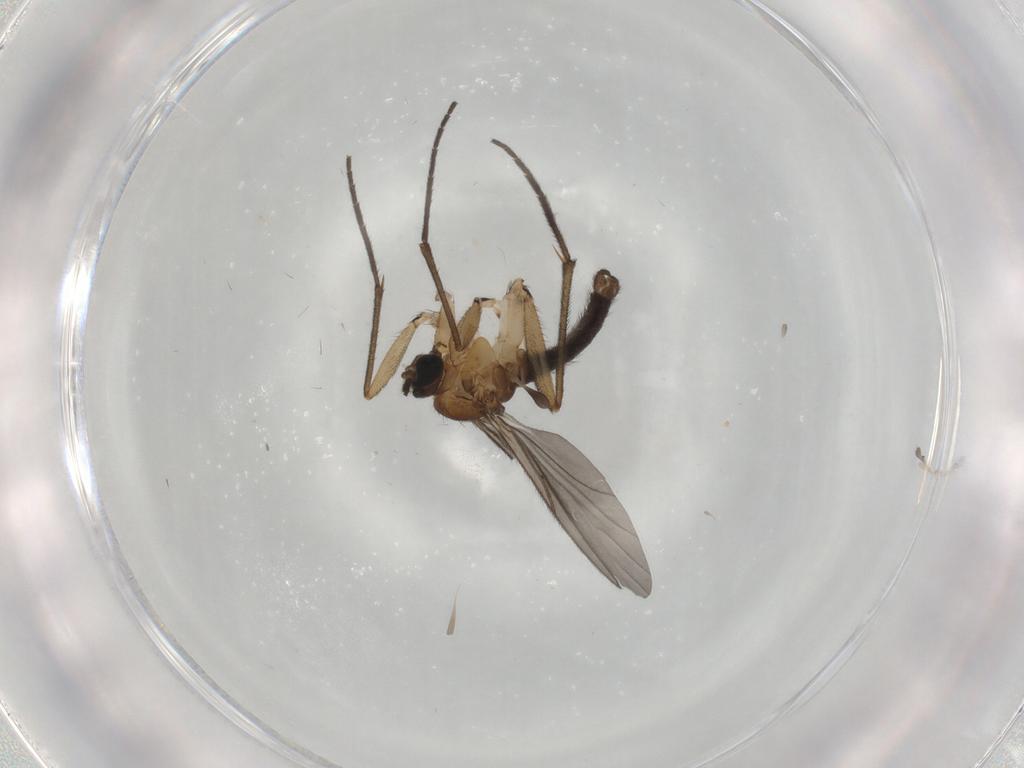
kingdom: Animalia
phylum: Arthropoda
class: Insecta
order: Diptera
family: Sciaridae
